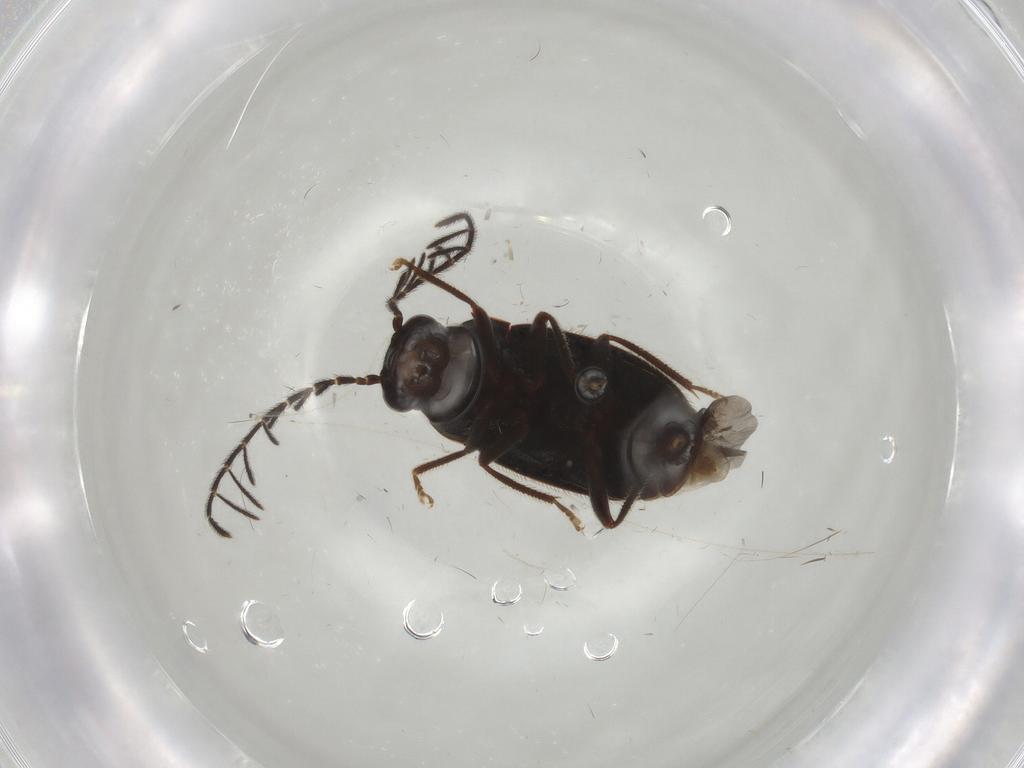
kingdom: Animalia
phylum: Arthropoda
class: Insecta
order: Coleoptera
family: Ptilodactylidae
